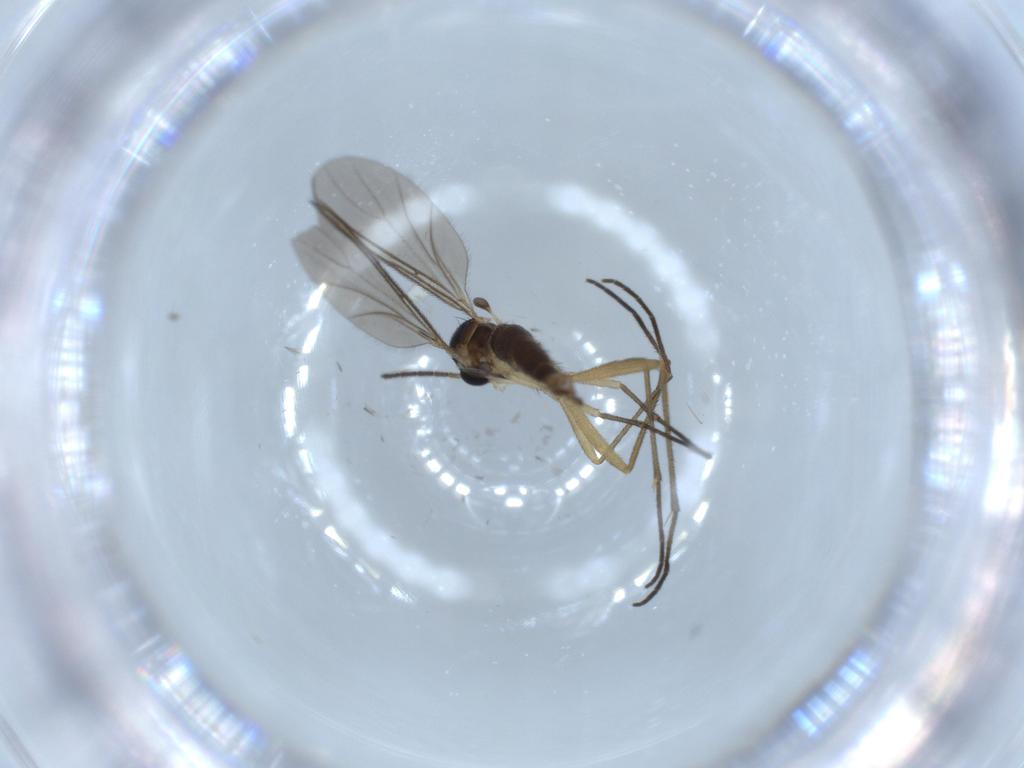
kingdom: Animalia
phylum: Arthropoda
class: Insecta
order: Diptera
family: Sciaridae
